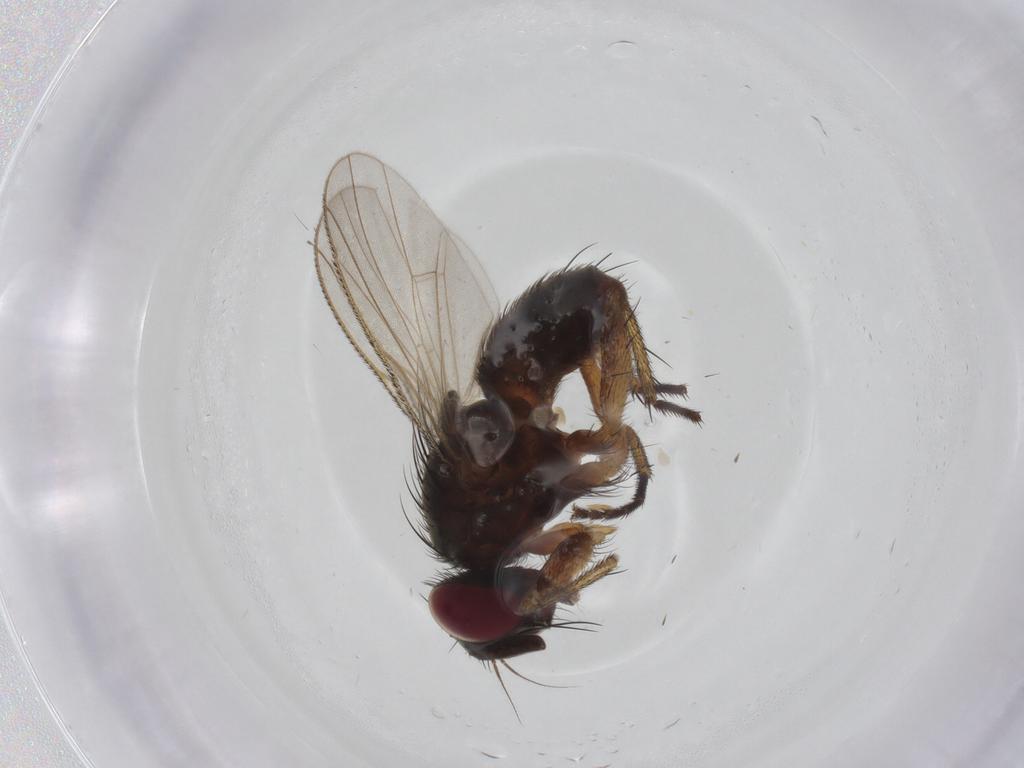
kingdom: Animalia
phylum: Arthropoda
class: Insecta
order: Diptera
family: Muscidae
